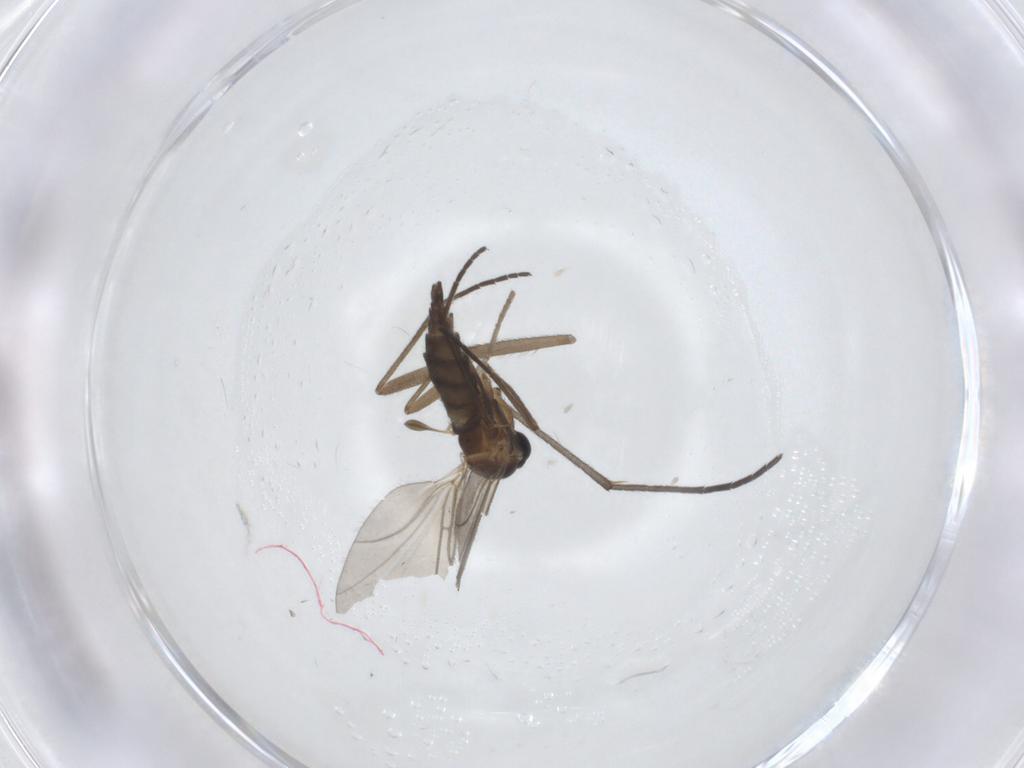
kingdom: Animalia
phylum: Arthropoda
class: Insecta
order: Diptera
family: Sciaridae
